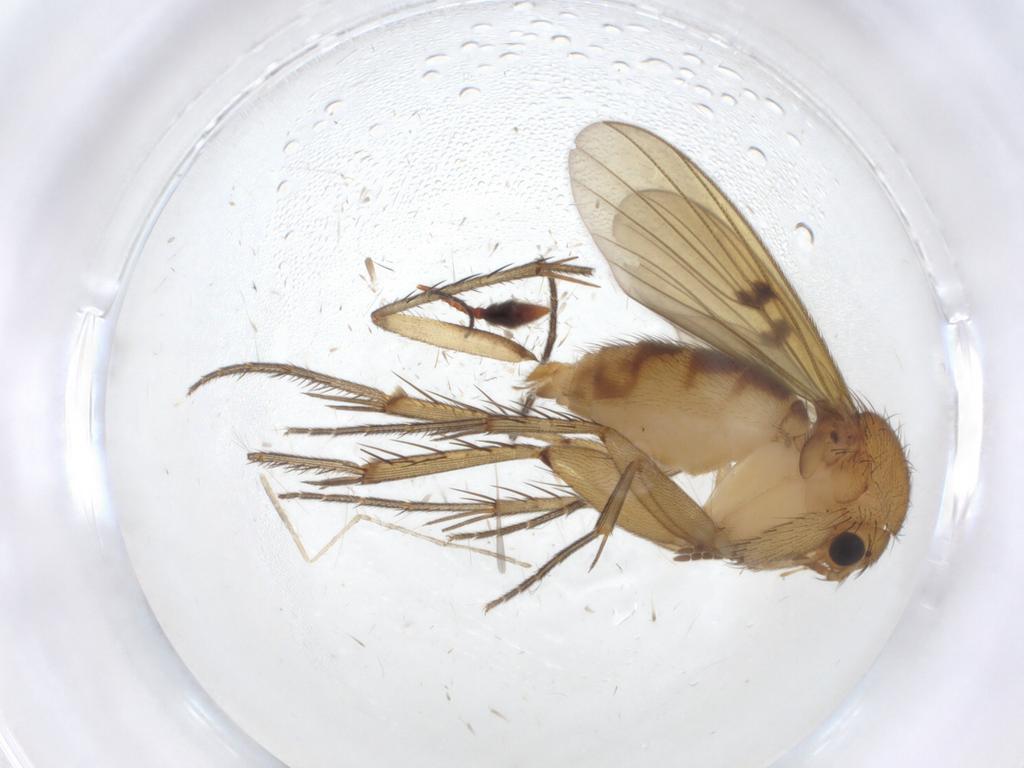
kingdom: Animalia
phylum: Arthropoda
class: Insecta
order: Diptera
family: Mycetophilidae
